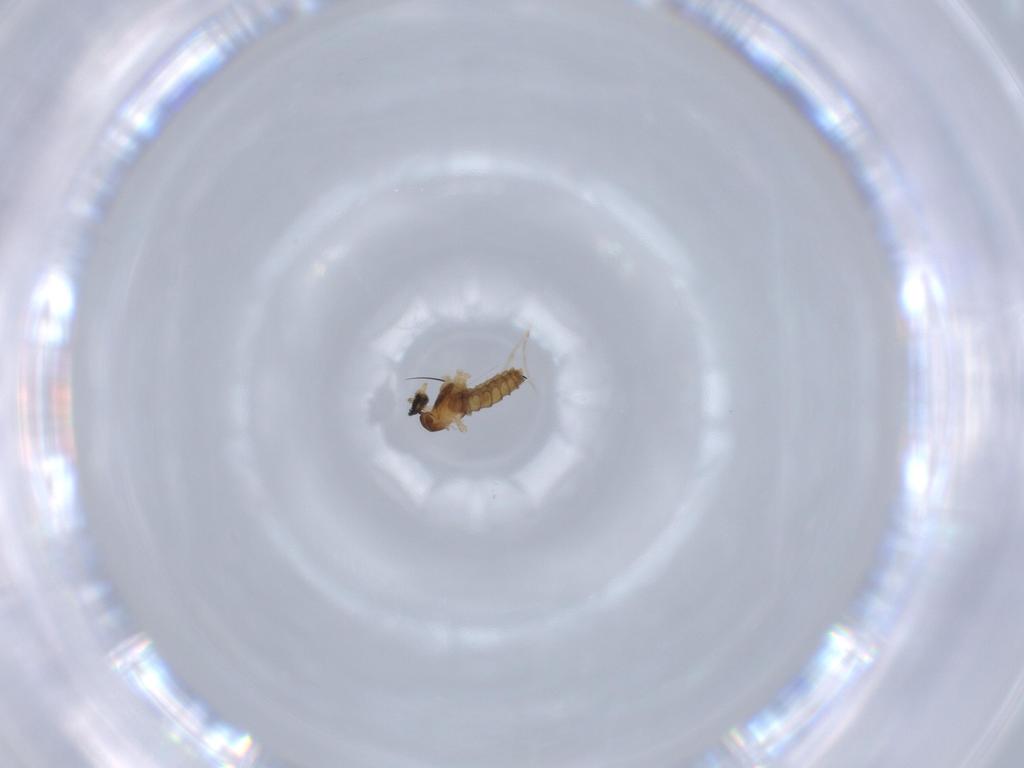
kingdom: Animalia
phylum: Arthropoda
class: Insecta
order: Diptera
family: Cecidomyiidae
